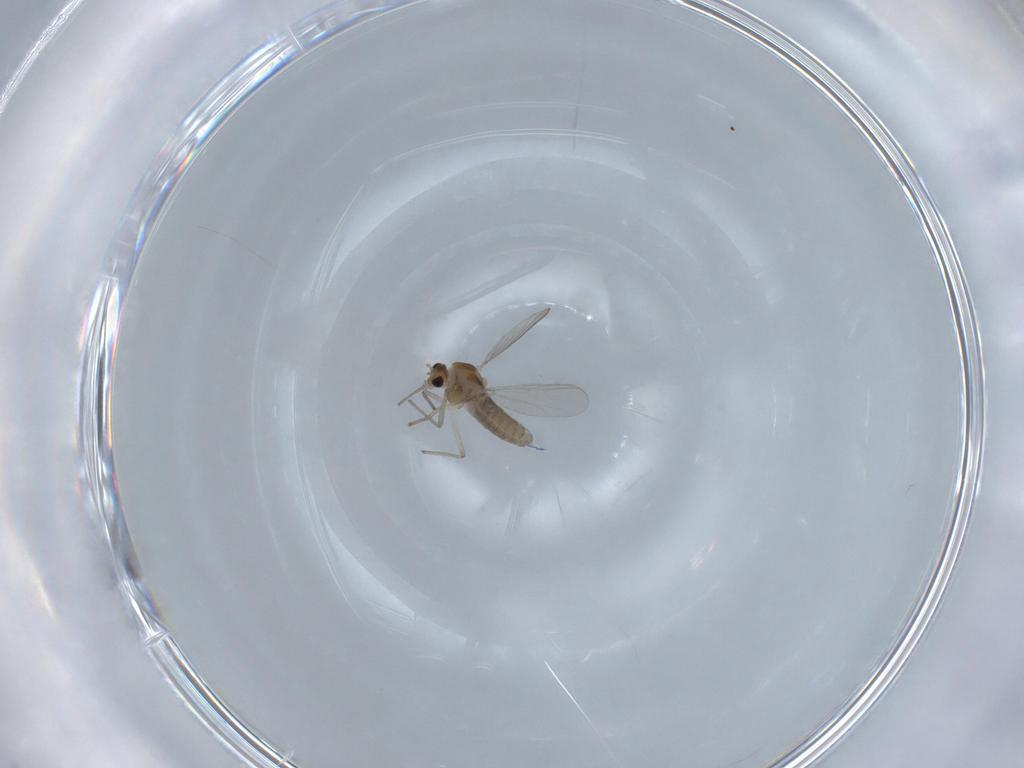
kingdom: Animalia
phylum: Arthropoda
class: Insecta
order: Diptera
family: Chironomidae
